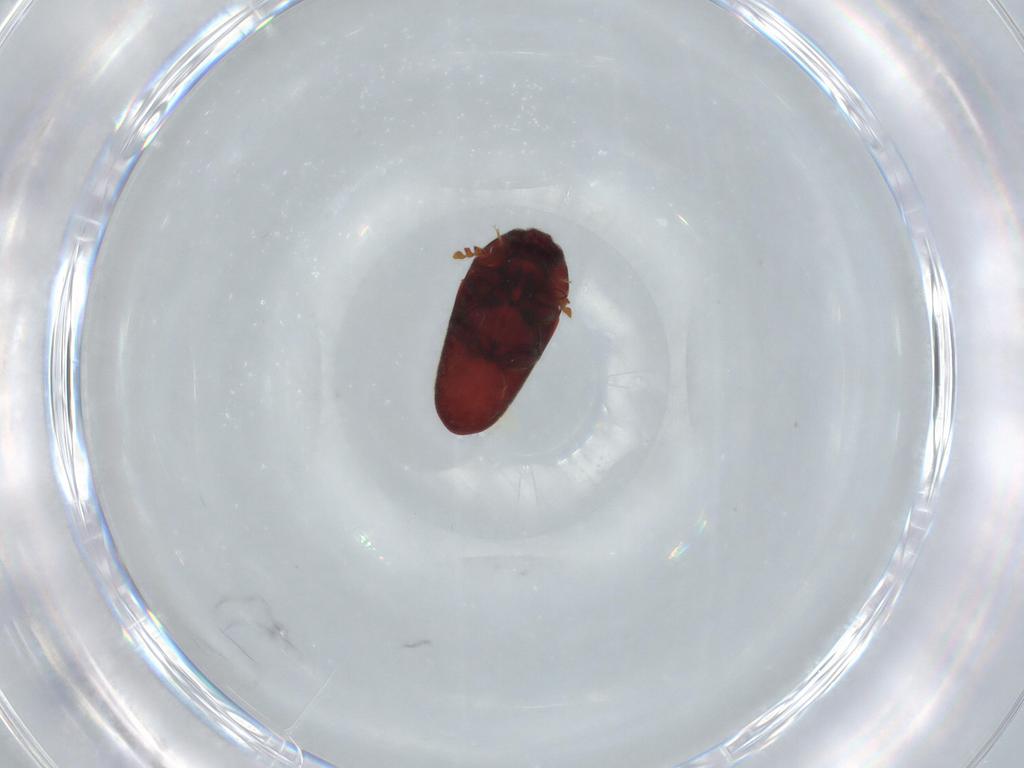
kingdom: Animalia
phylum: Arthropoda
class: Insecta
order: Coleoptera
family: Throscidae
